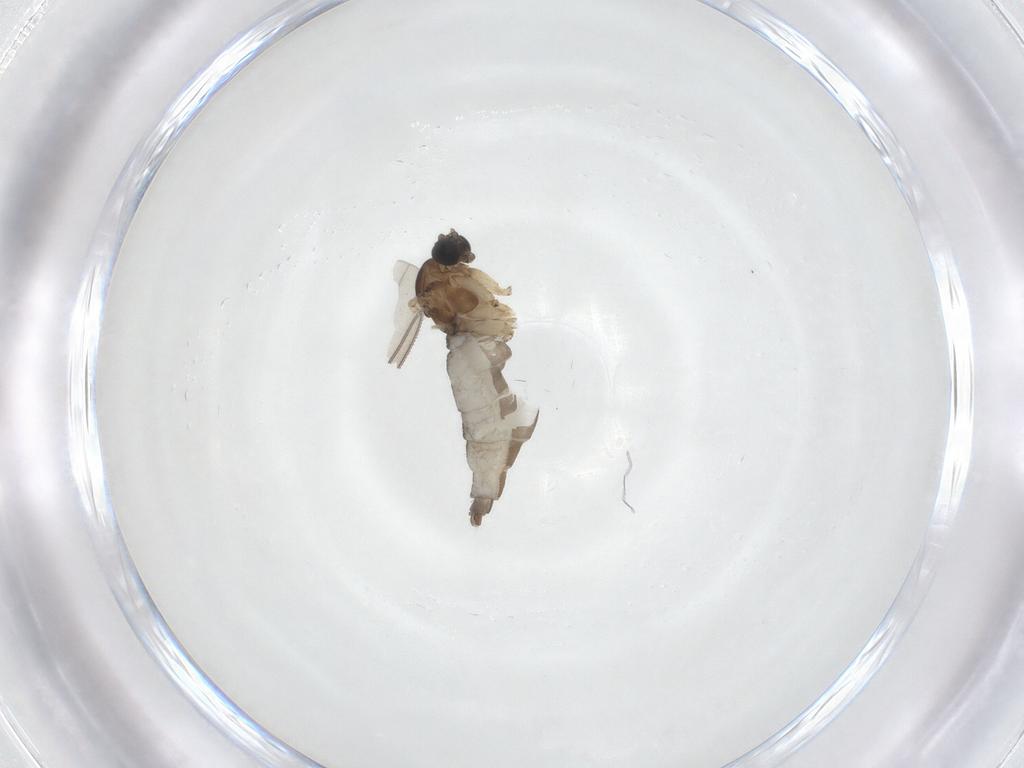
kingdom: Animalia
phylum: Arthropoda
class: Insecta
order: Diptera
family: Sciaridae
